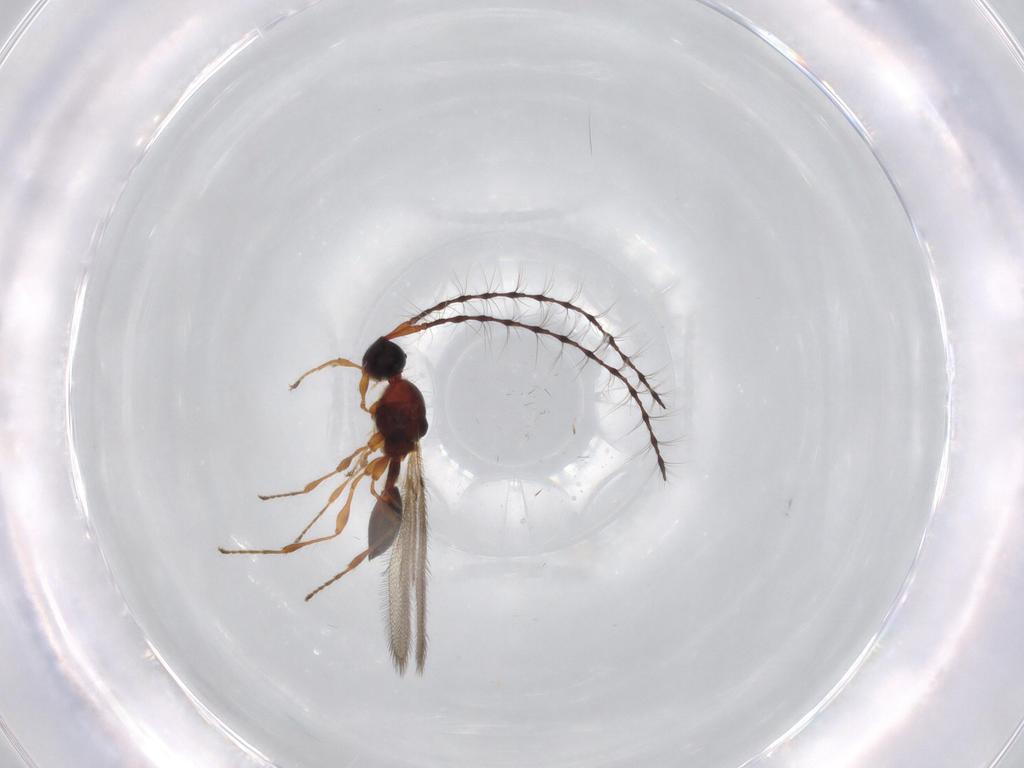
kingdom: Animalia
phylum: Arthropoda
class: Insecta
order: Hymenoptera
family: Diapriidae
